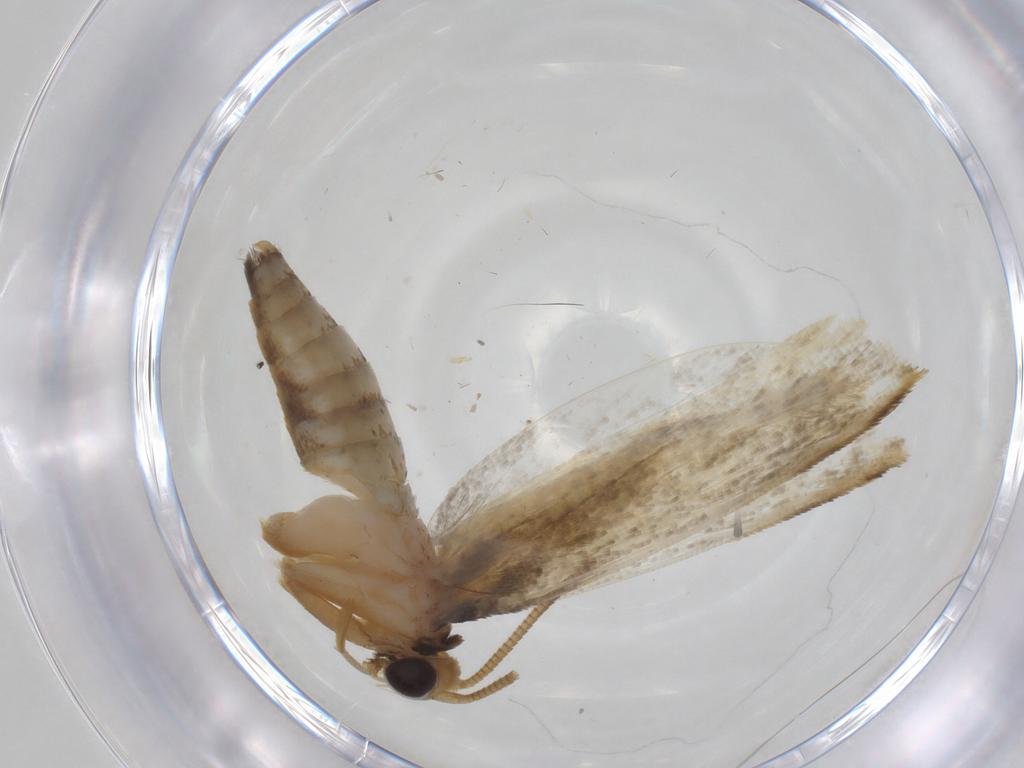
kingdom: Animalia
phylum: Arthropoda
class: Insecta
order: Lepidoptera
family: Tineidae
